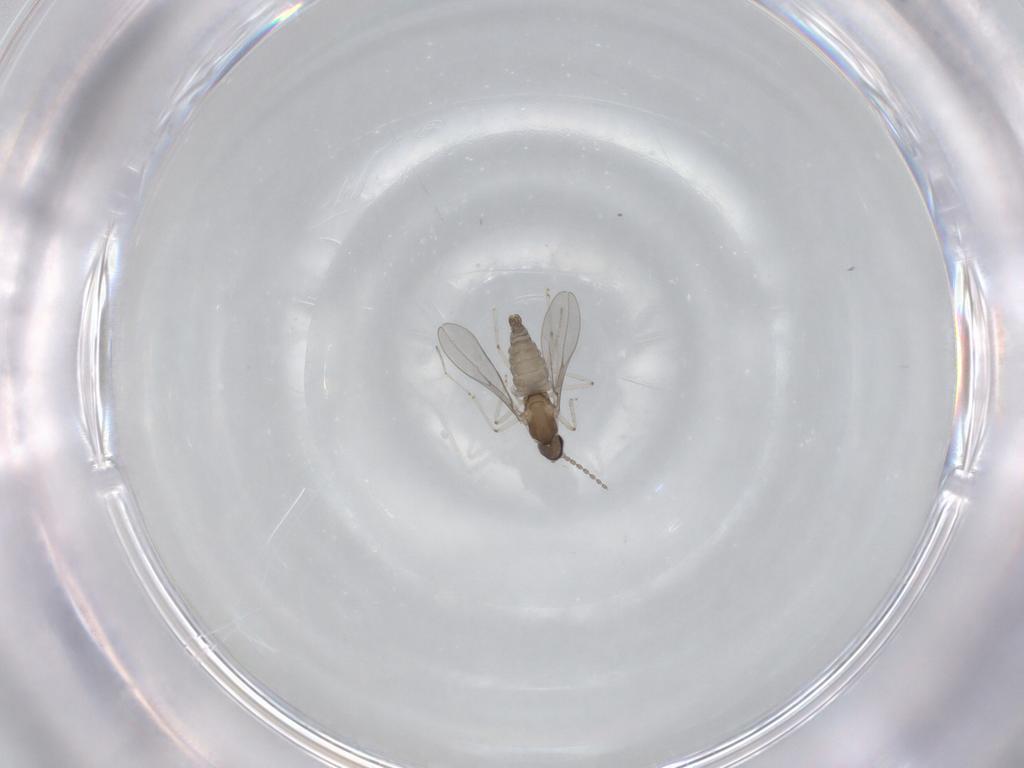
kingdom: Animalia
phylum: Arthropoda
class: Insecta
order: Diptera
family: Cecidomyiidae
